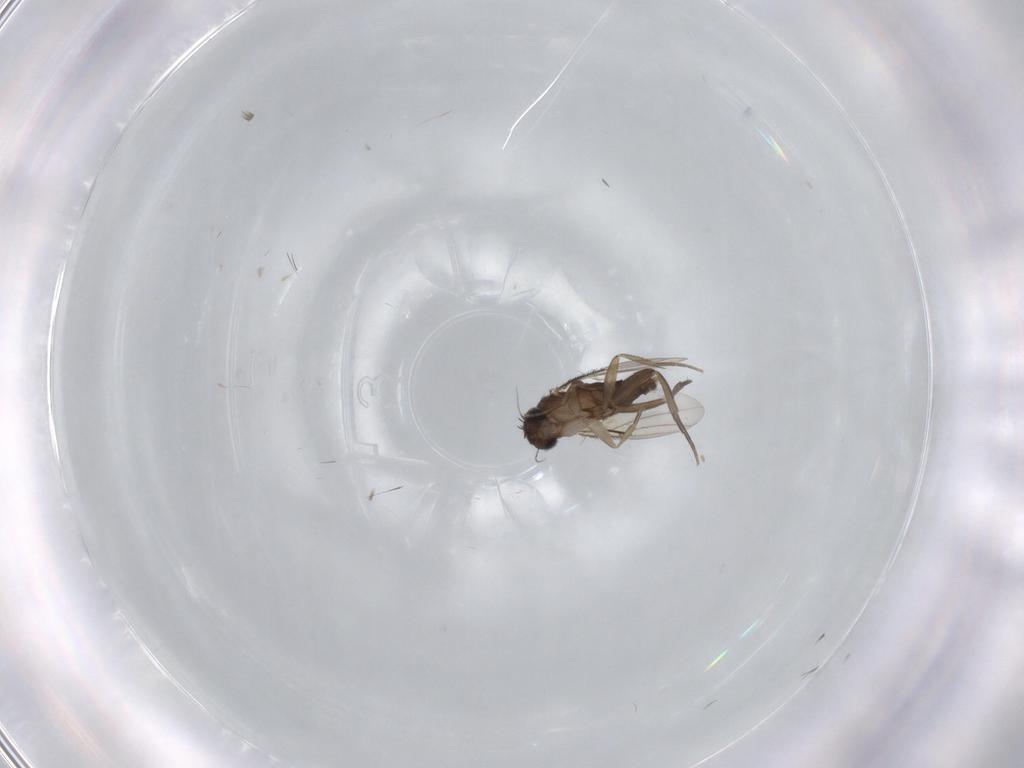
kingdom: Animalia
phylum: Arthropoda
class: Insecta
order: Diptera
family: Phoridae
